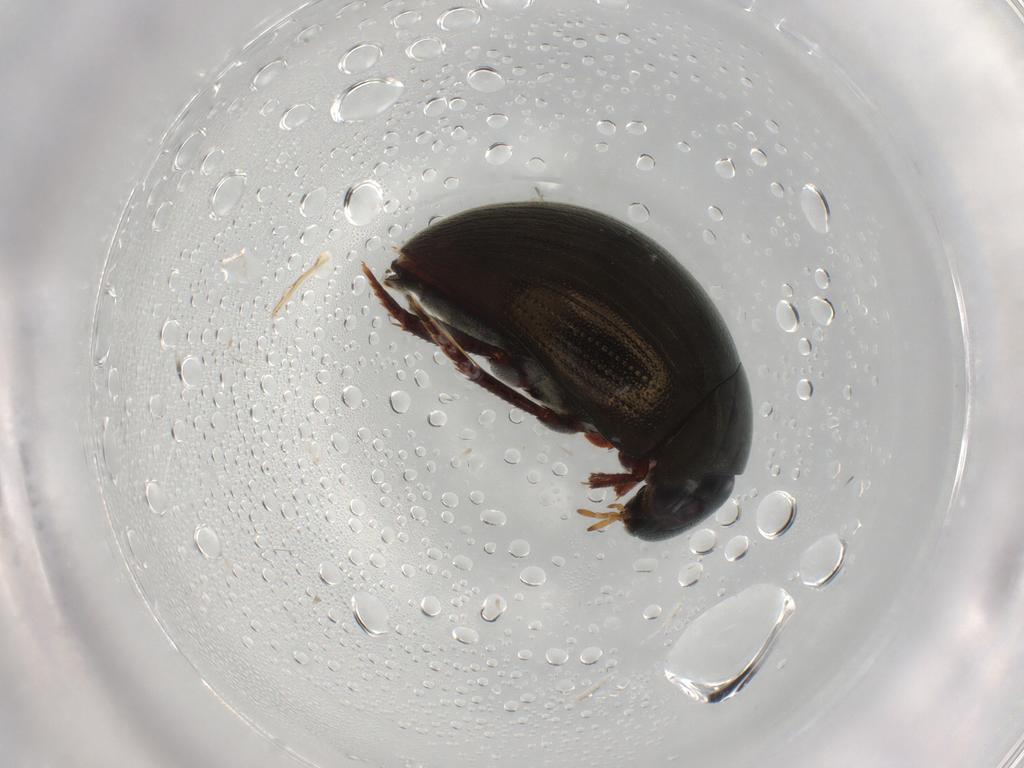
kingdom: Animalia
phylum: Arthropoda
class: Insecta
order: Coleoptera
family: Heteroceridae
